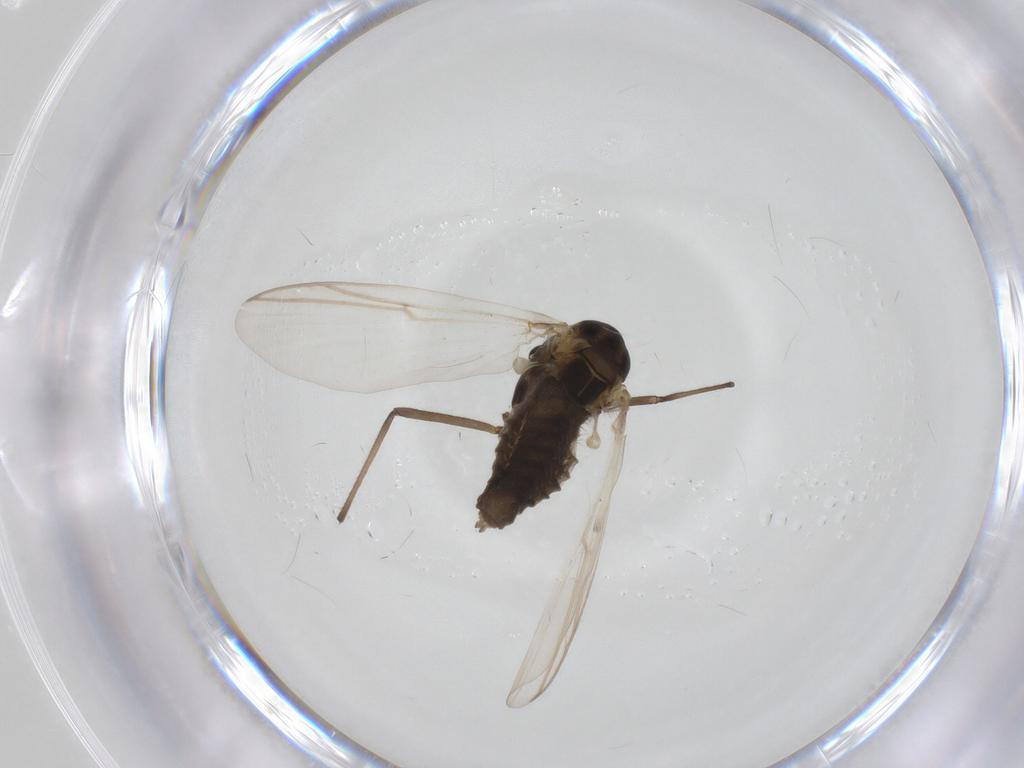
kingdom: Animalia
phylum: Arthropoda
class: Insecta
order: Diptera
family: Chironomidae
